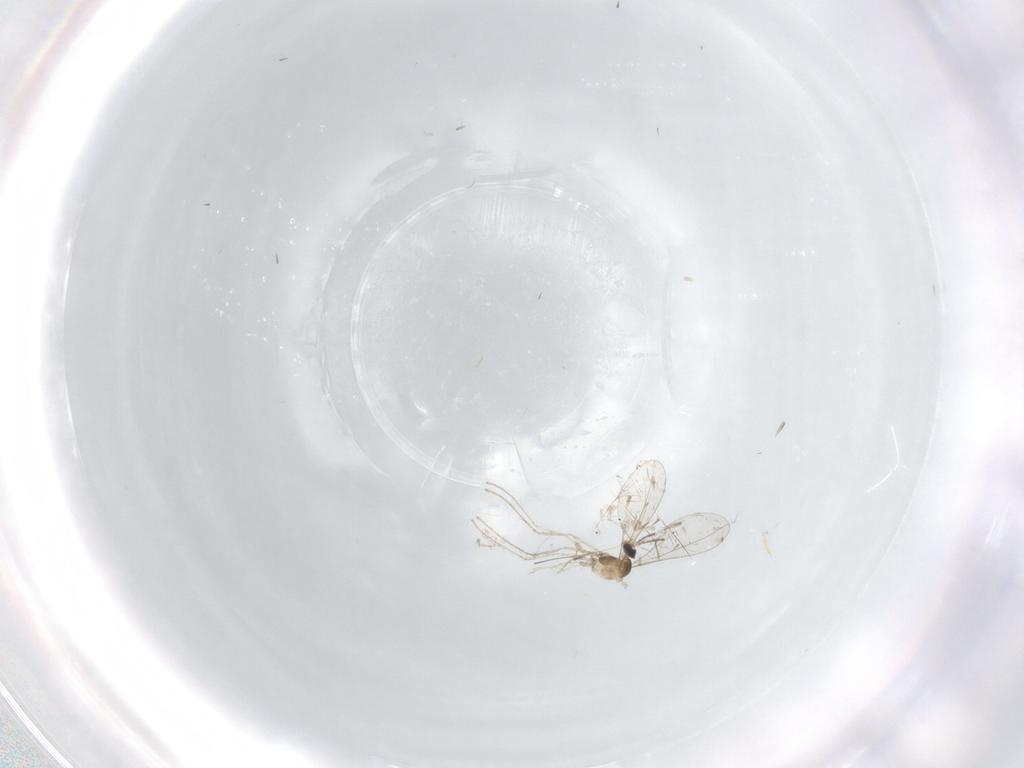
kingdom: Animalia
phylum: Arthropoda
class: Insecta
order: Diptera
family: Cecidomyiidae
